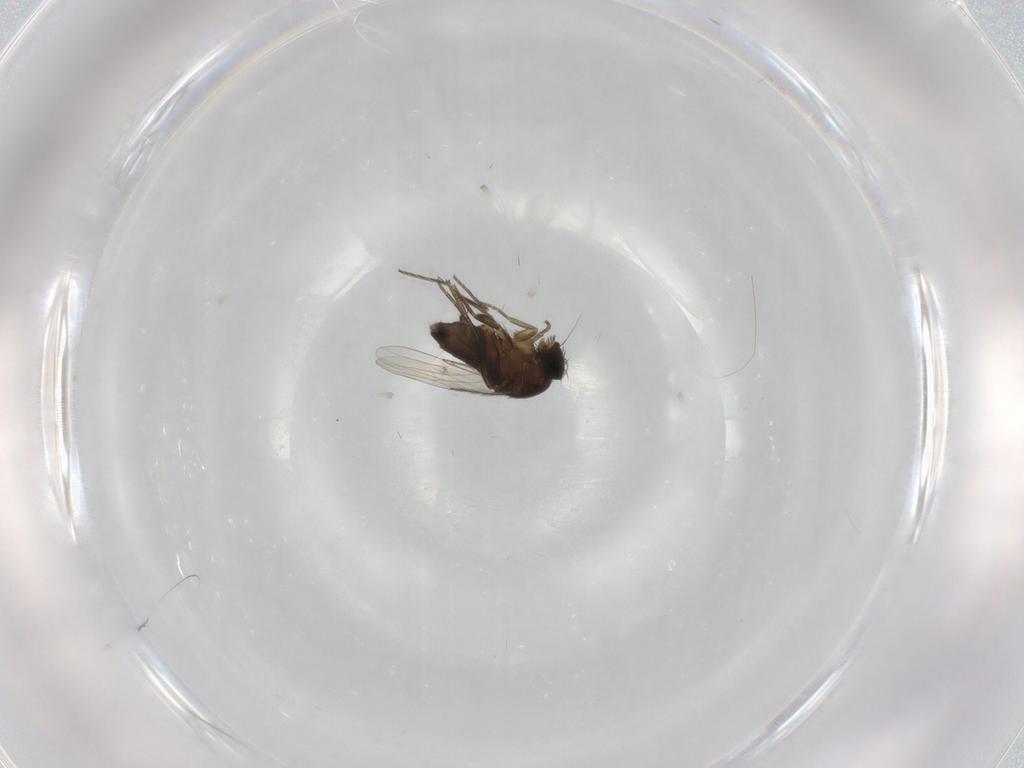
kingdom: Animalia
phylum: Arthropoda
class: Insecta
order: Diptera
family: Phoridae
